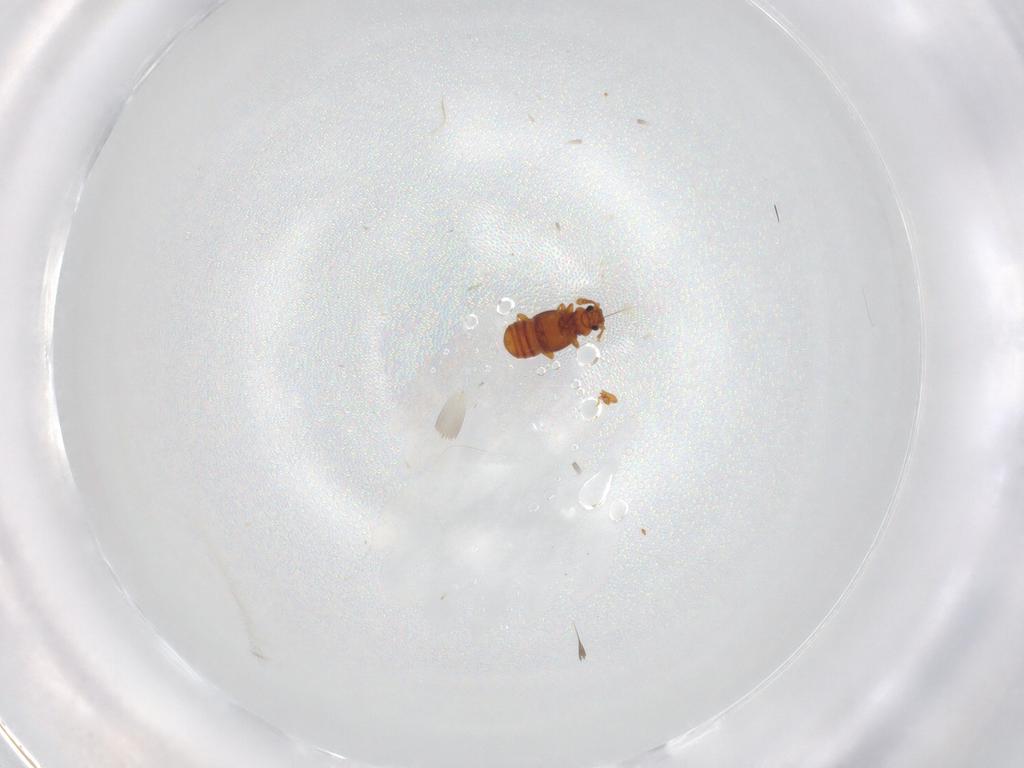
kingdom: Animalia
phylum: Arthropoda
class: Insecta
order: Coleoptera
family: Staphylinidae
